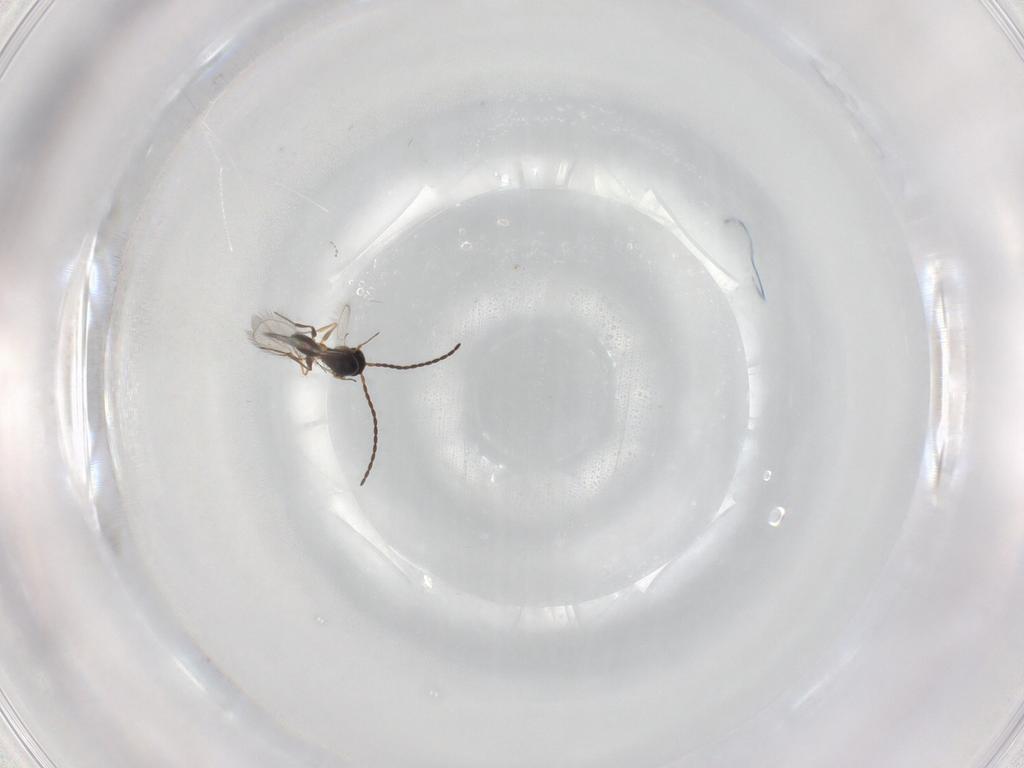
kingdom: Animalia
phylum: Arthropoda
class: Insecta
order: Hymenoptera
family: Figitidae
